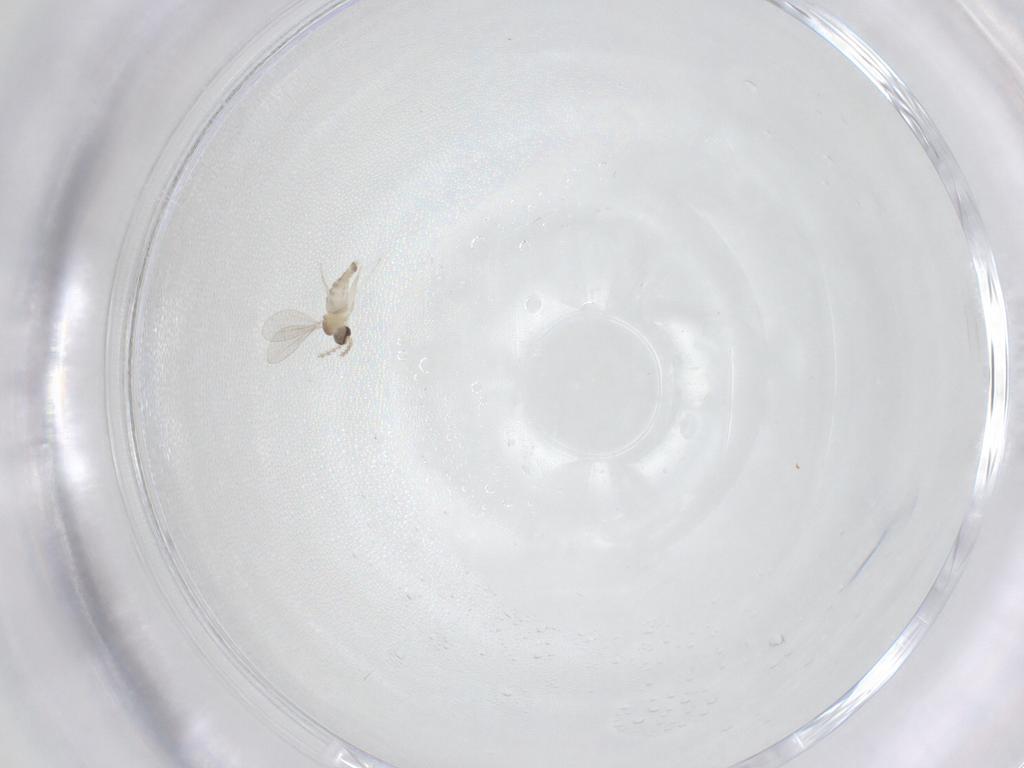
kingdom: Animalia
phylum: Arthropoda
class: Insecta
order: Diptera
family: Cecidomyiidae
